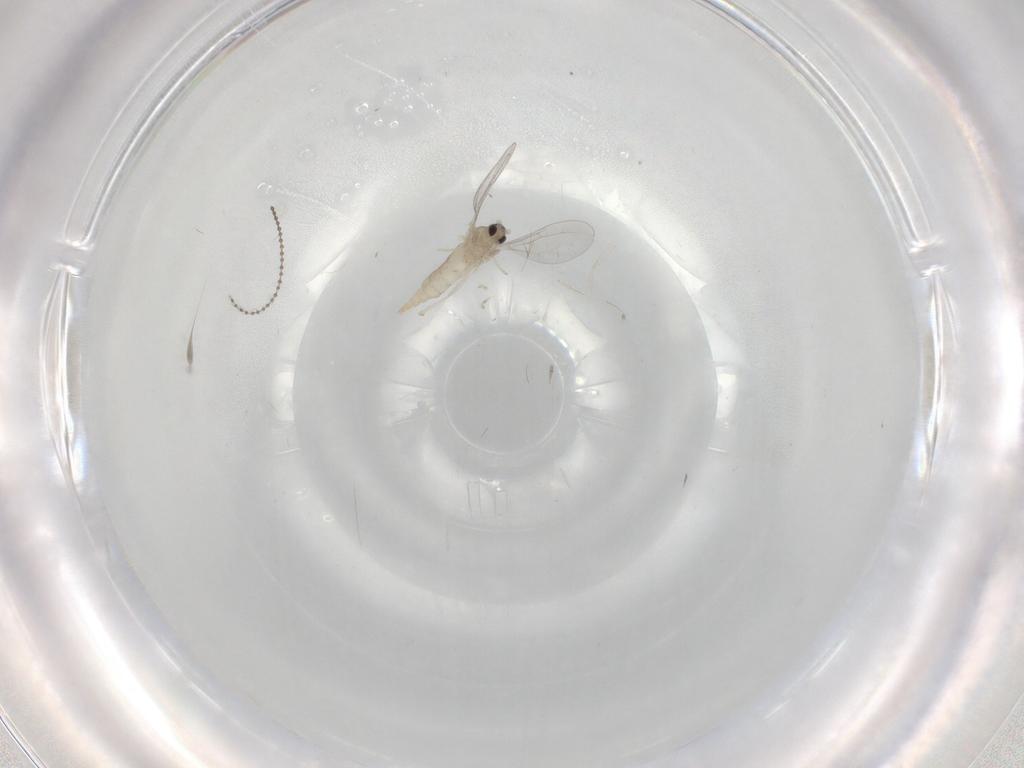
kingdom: Animalia
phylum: Arthropoda
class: Insecta
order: Diptera
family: Cecidomyiidae
